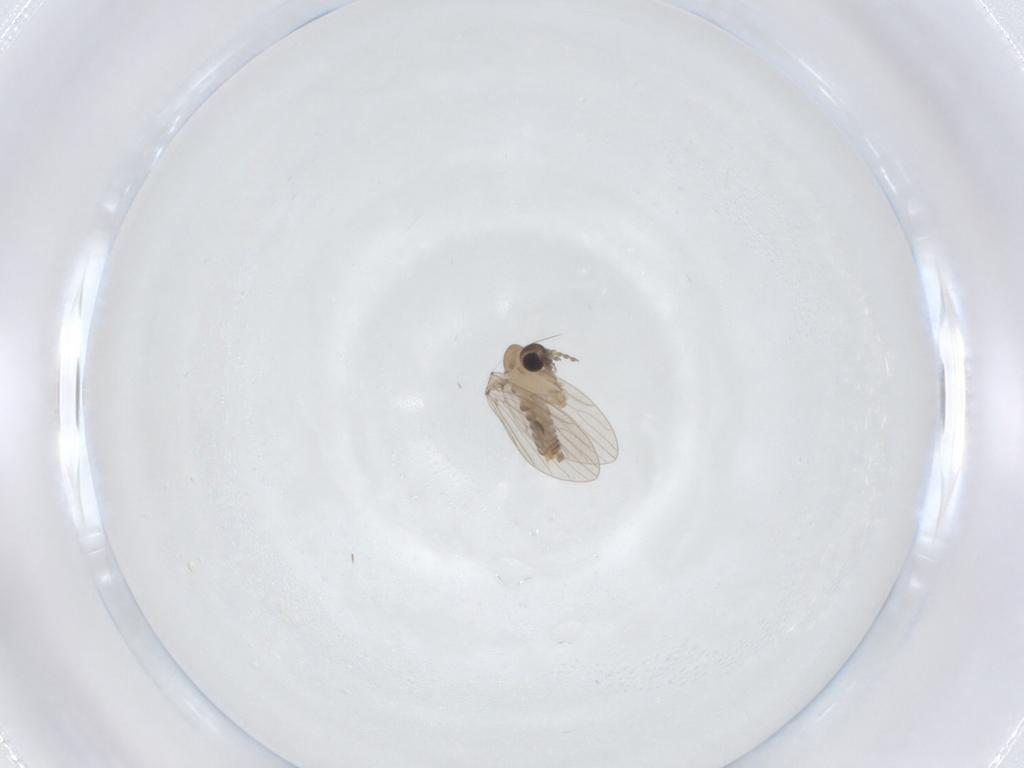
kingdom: Animalia
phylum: Arthropoda
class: Insecta
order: Diptera
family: Psychodidae
